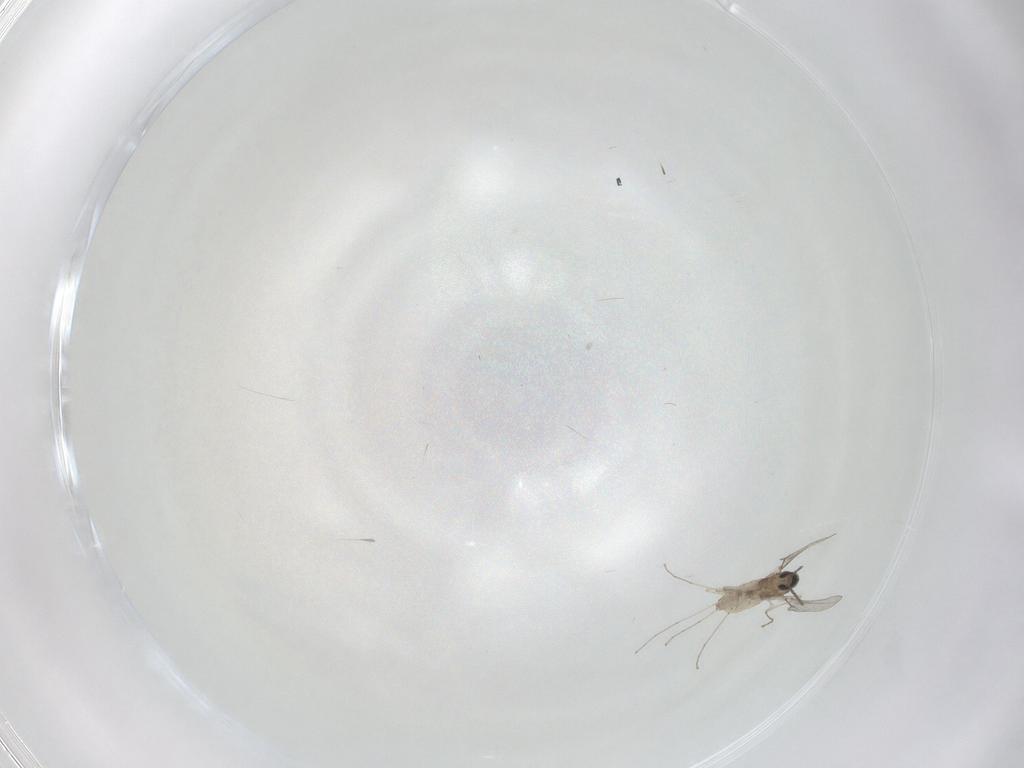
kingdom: Animalia
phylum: Arthropoda
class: Insecta
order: Diptera
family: Cecidomyiidae
